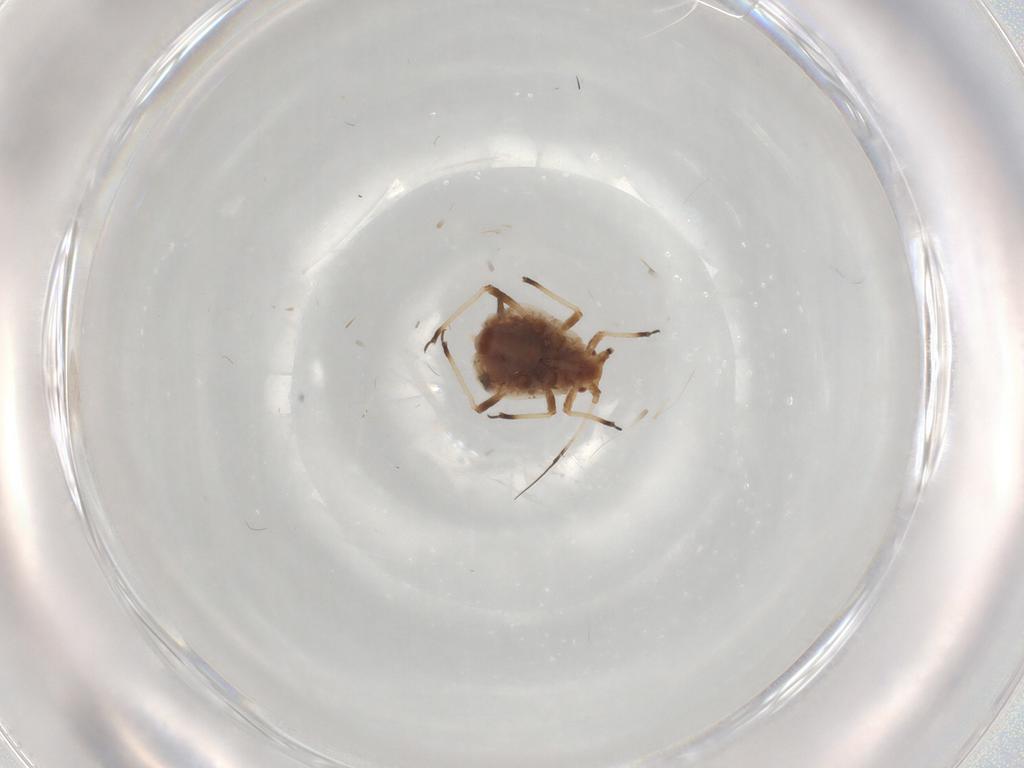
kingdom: Animalia
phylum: Arthropoda
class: Insecta
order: Hemiptera
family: Aphididae
